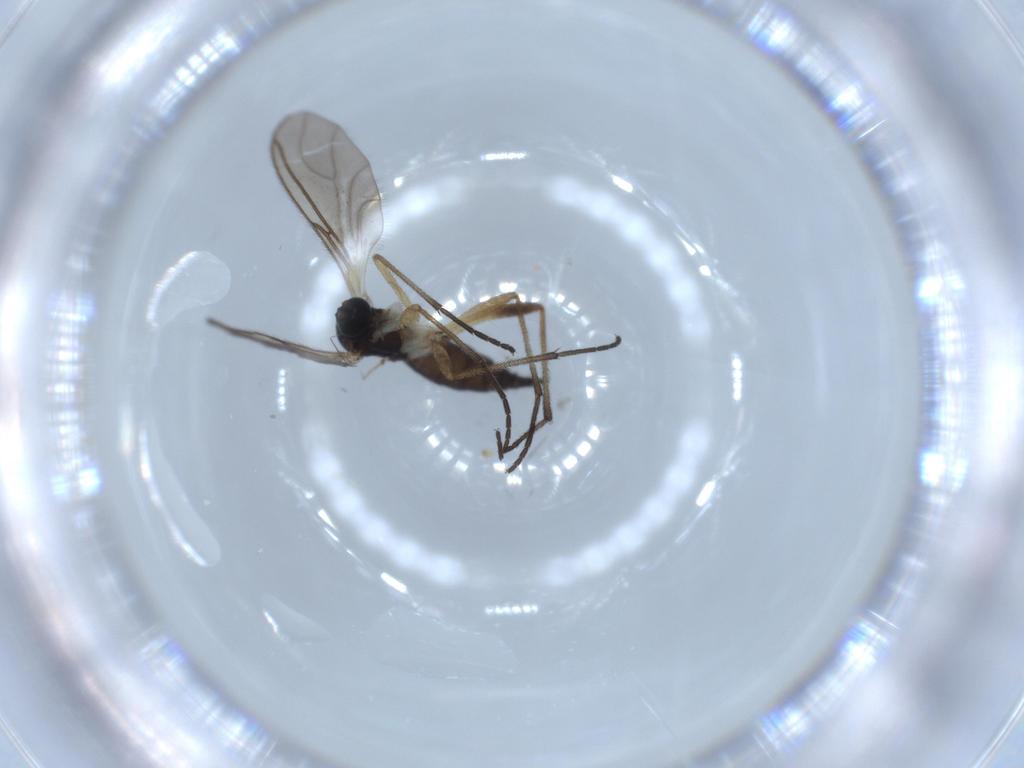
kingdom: Animalia
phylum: Arthropoda
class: Insecta
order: Diptera
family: Sciaridae
